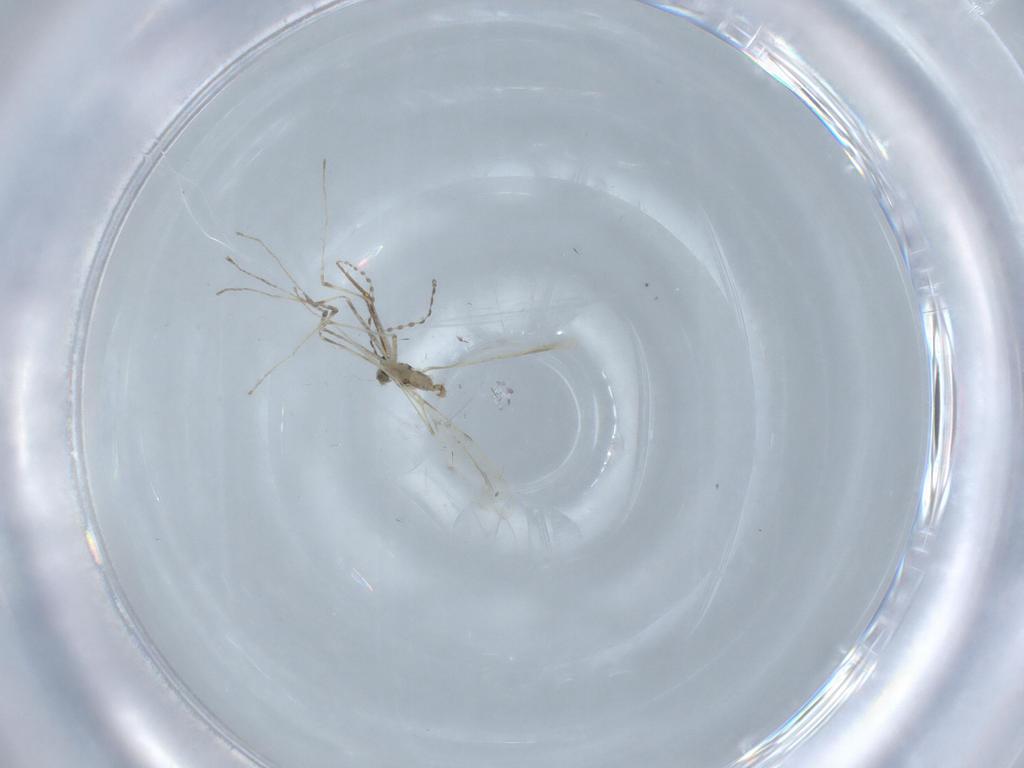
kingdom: Animalia
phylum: Arthropoda
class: Insecta
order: Diptera
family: Cecidomyiidae
